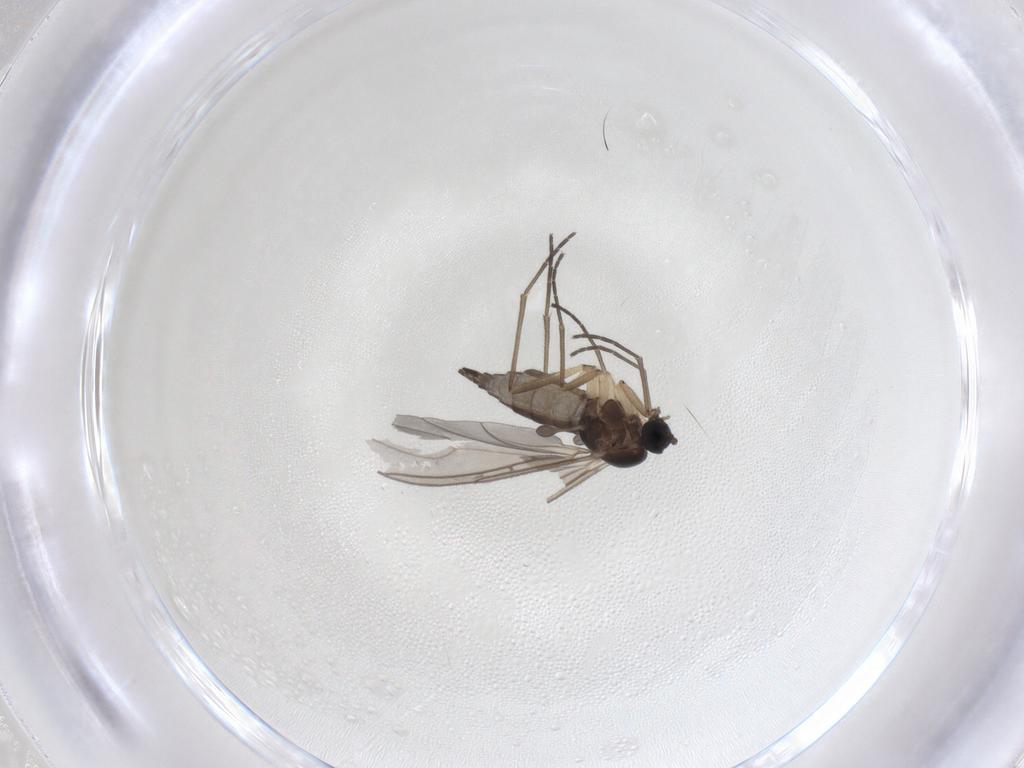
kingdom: Animalia
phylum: Arthropoda
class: Insecta
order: Diptera
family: Sciaridae
